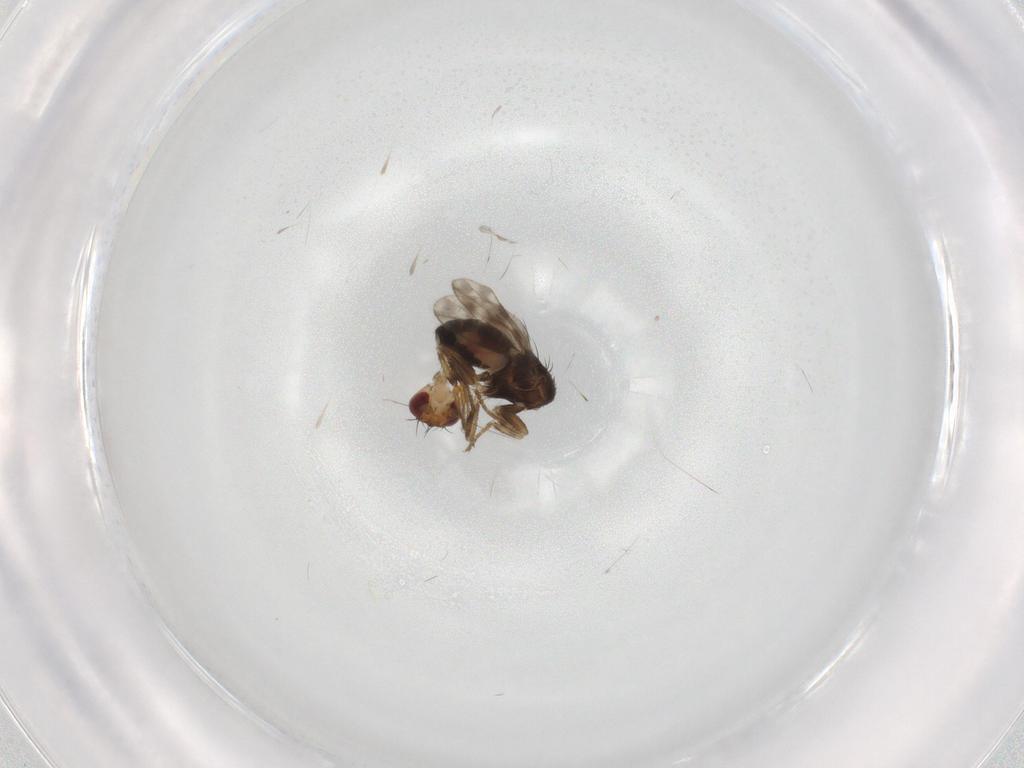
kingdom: Animalia
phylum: Arthropoda
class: Insecta
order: Diptera
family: Sphaeroceridae
